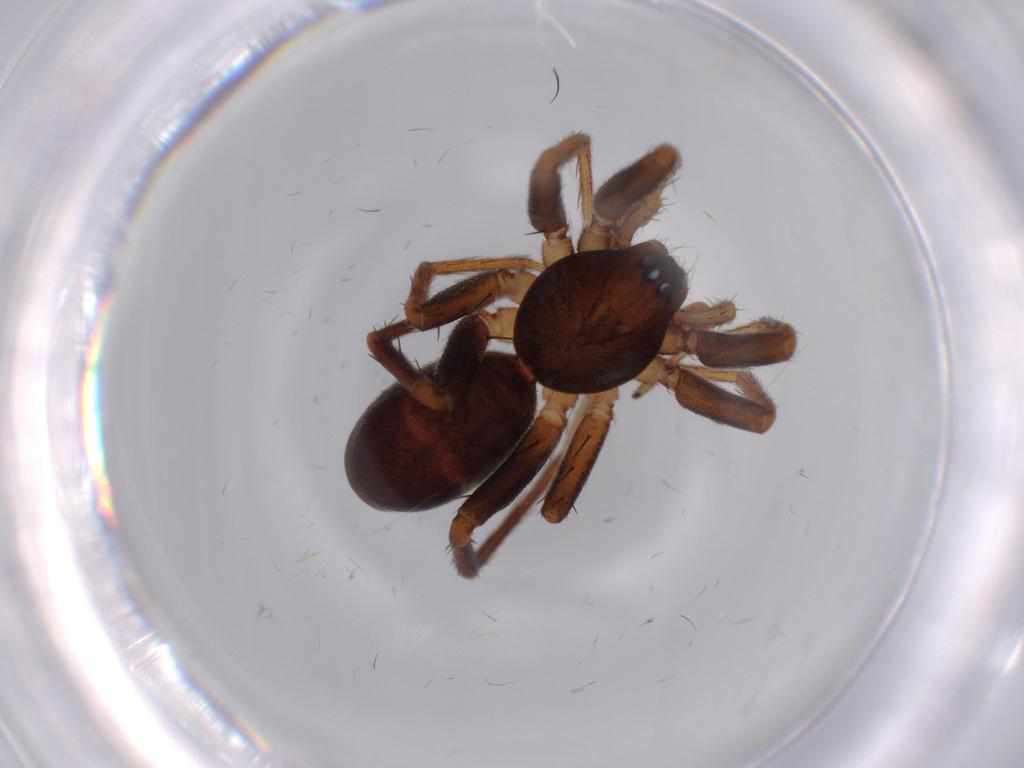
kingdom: Animalia
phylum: Arthropoda
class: Arachnida
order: Araneae
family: Corinnidae
